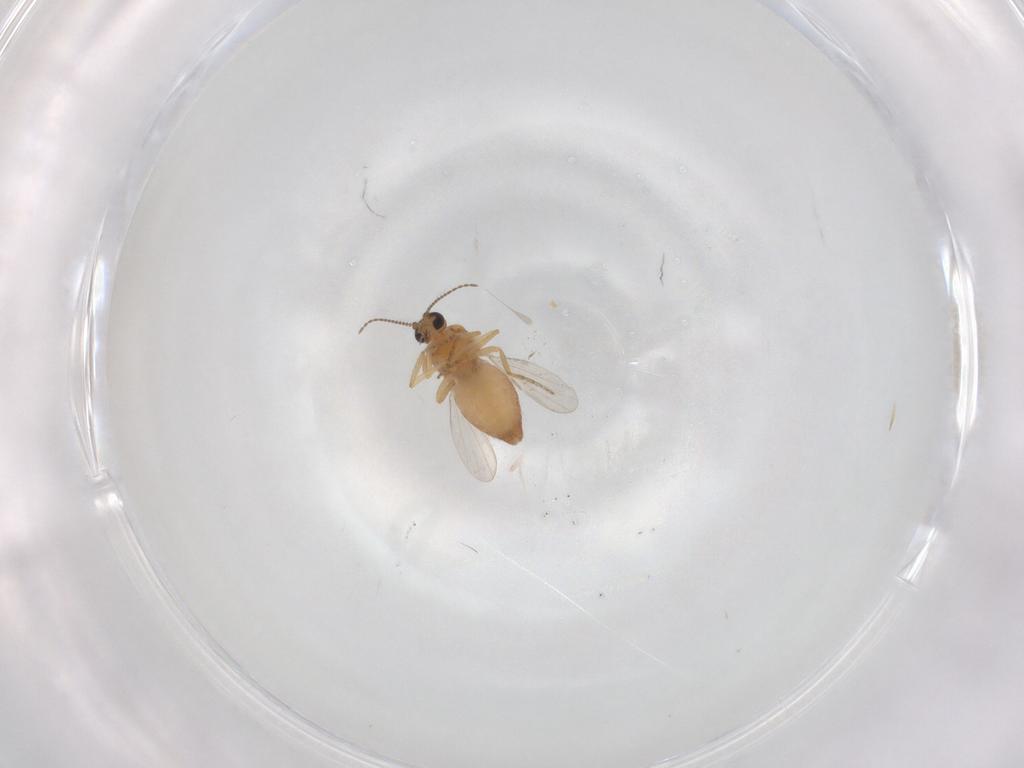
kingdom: Animalia
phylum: Arthropoda
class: Insecta
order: Diptera
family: Ceratopogonidae
